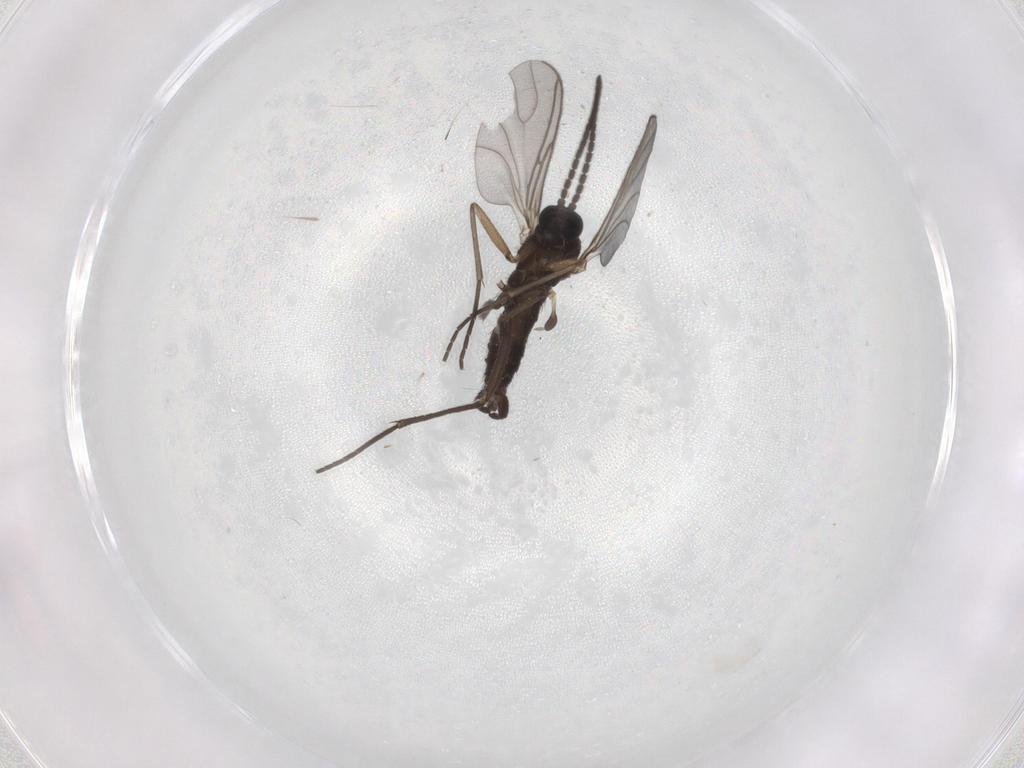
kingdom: Animalia
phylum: Arthropoda
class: Insecta
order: Diptera
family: Sciaridae
